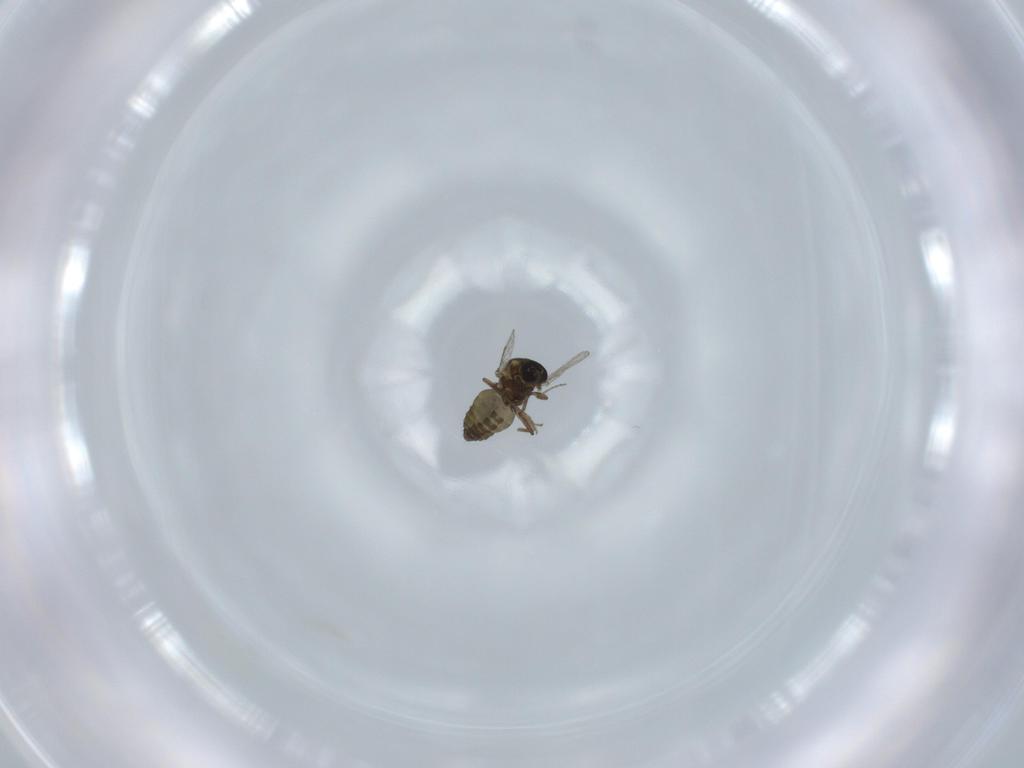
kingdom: Animalia
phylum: Arthropoda
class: Insecta
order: Diptera
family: Ceratopogonidae
